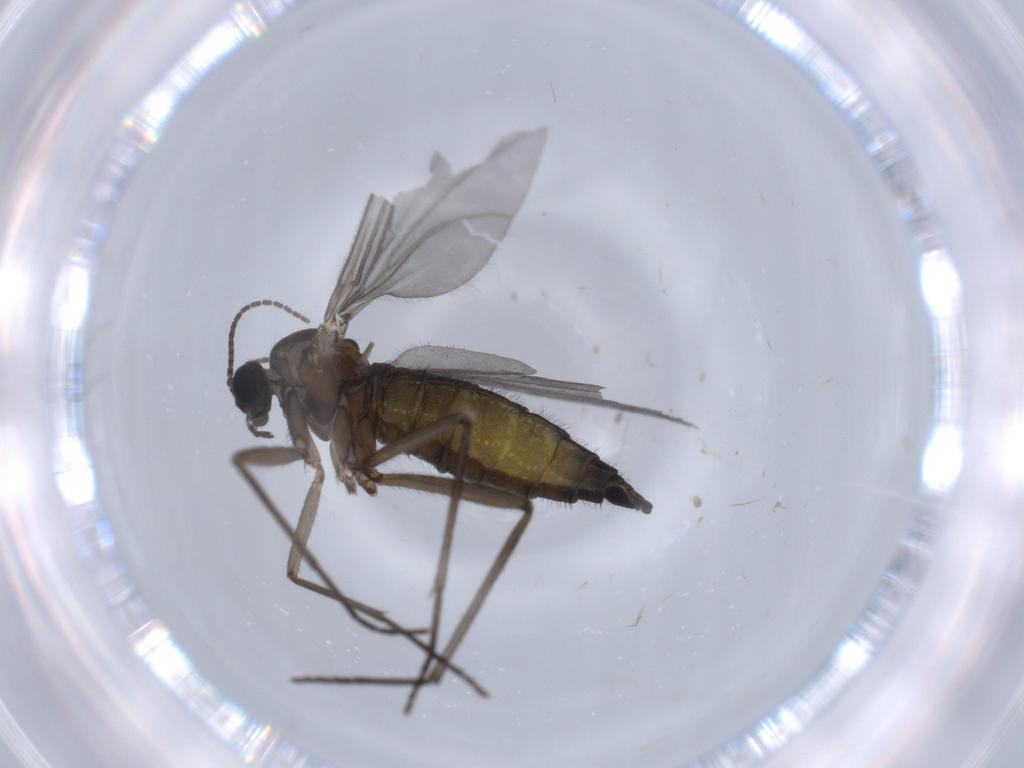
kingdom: Animalia
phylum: Arthropoda
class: Insecta
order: Diptera
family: Sciaridae
